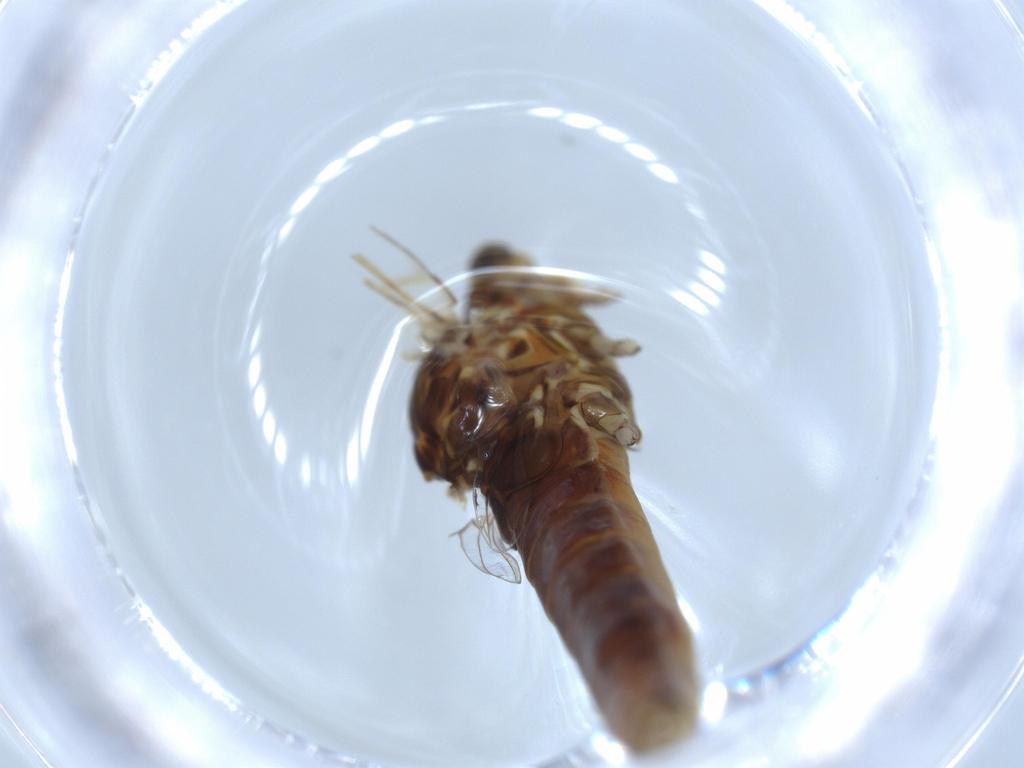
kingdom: Animalia
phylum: Arthropoda
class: Insecta
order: Ephemeroptera
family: Baetidae
